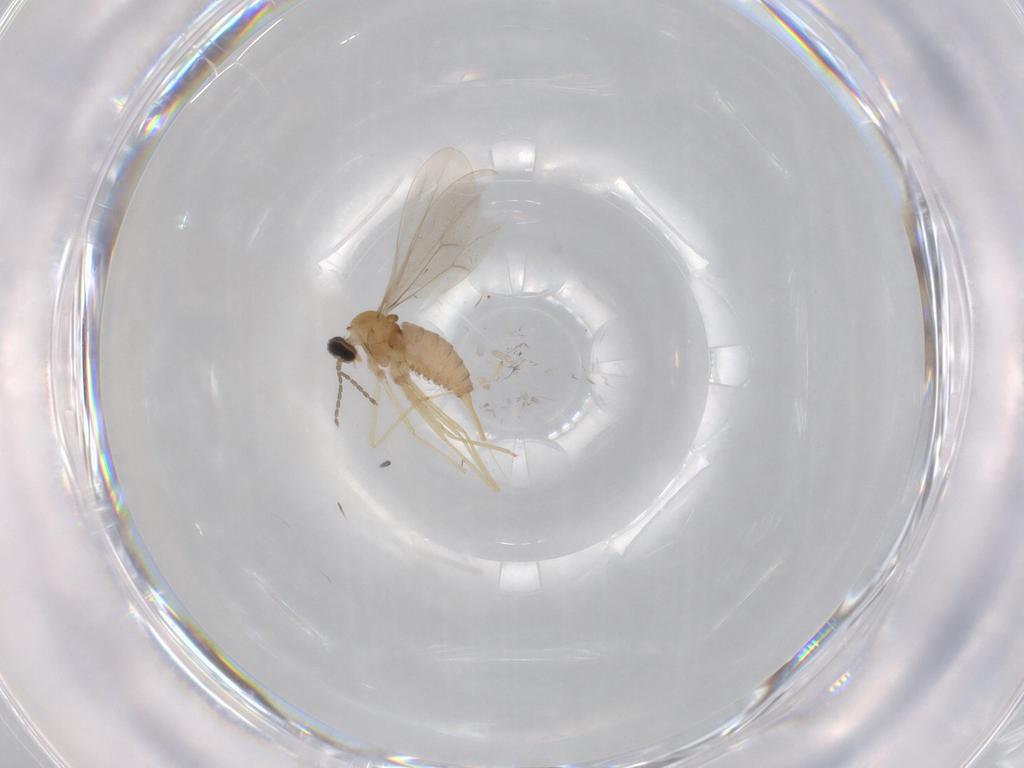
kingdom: Animalia
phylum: Arthropoda
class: Insecta
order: Diptera
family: Cecidomyiidae
